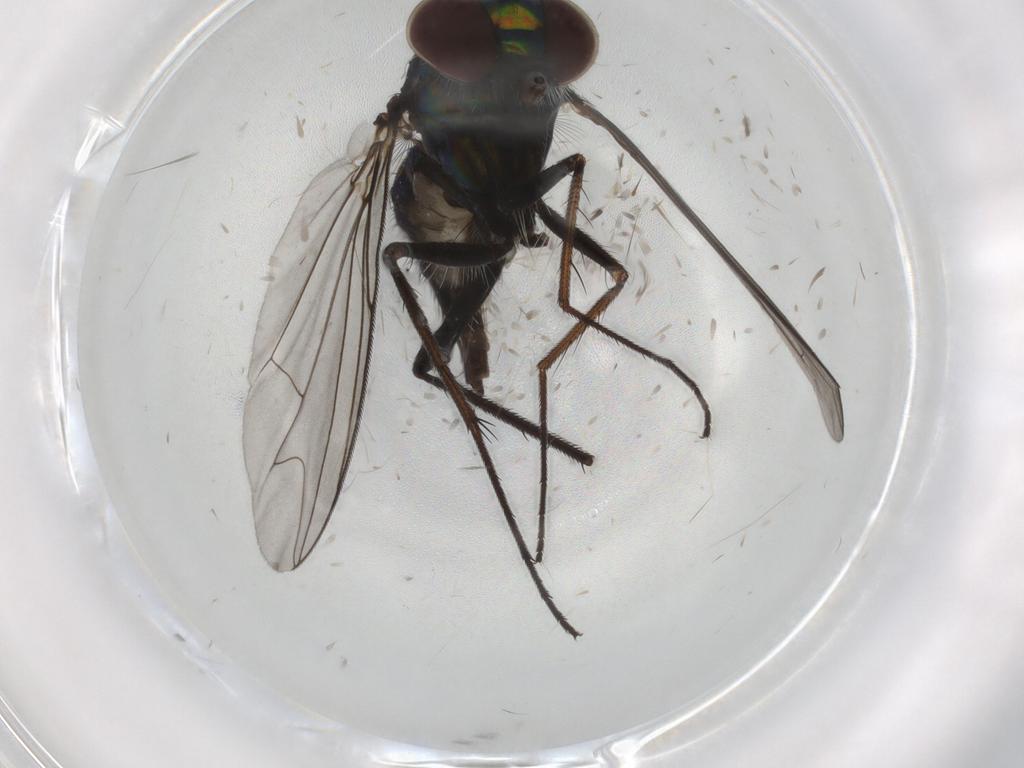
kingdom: Animalia
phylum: Arthropoda
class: Insecta
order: Diptera
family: Dolichopodidae
